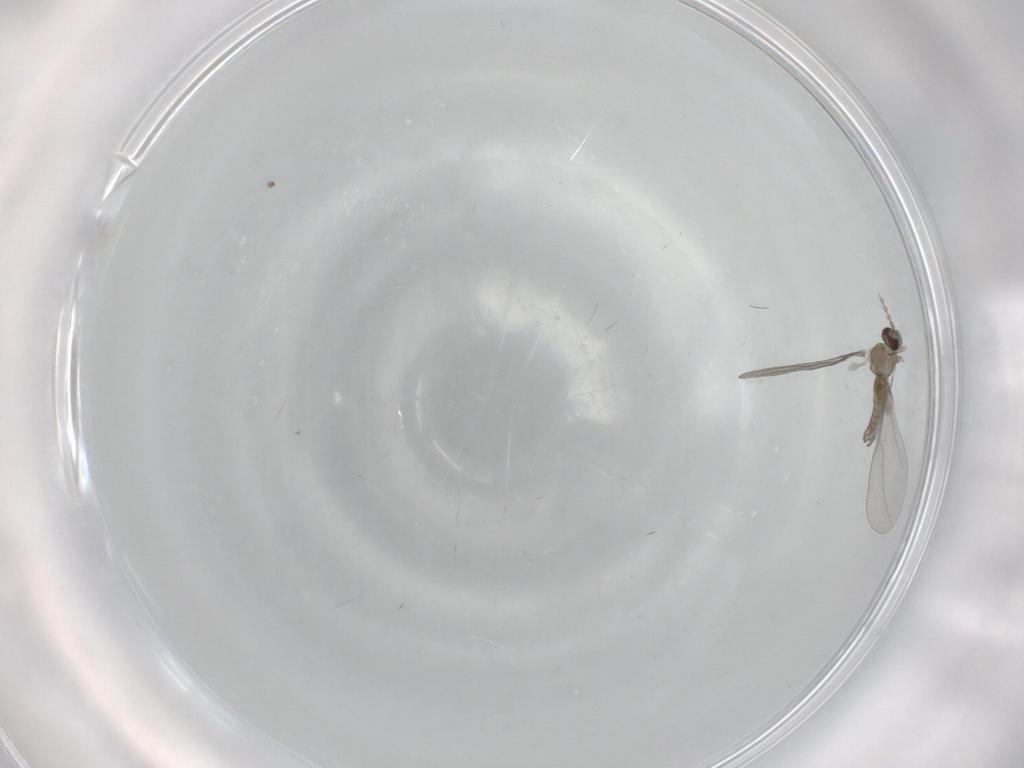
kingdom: Animalia
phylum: Arthropoda
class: Insecta
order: Diptera
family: Cecidomyiidae
